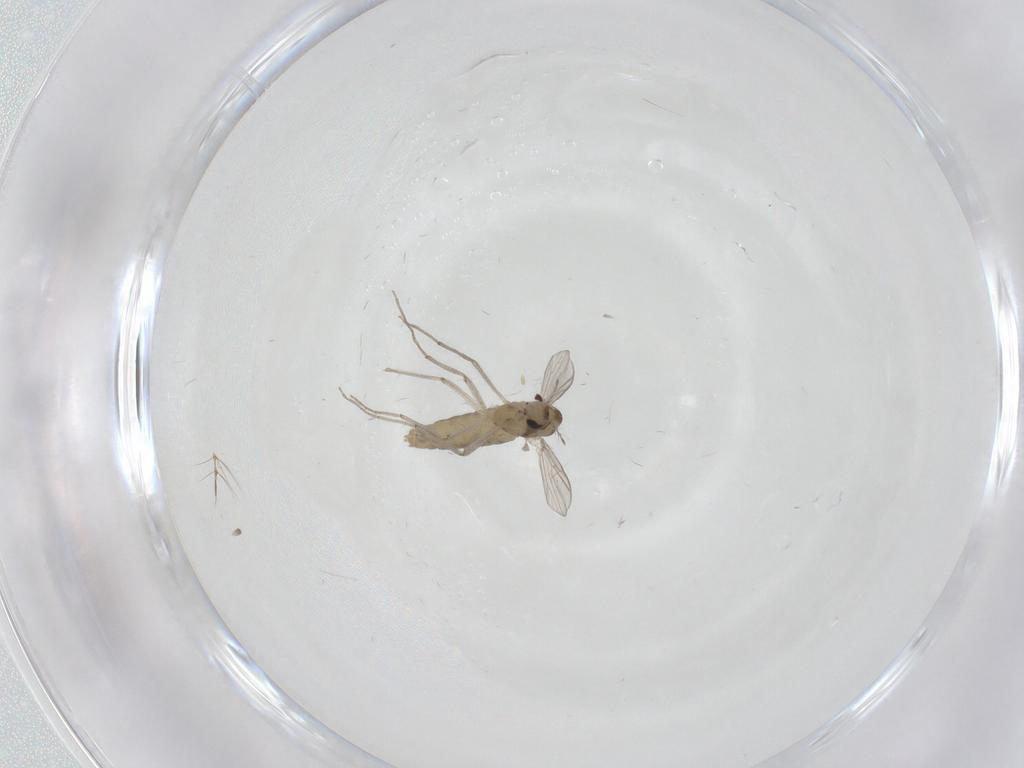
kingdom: Animalia
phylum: Arthropoda
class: Insecta
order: Diptera
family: Chironomidae
